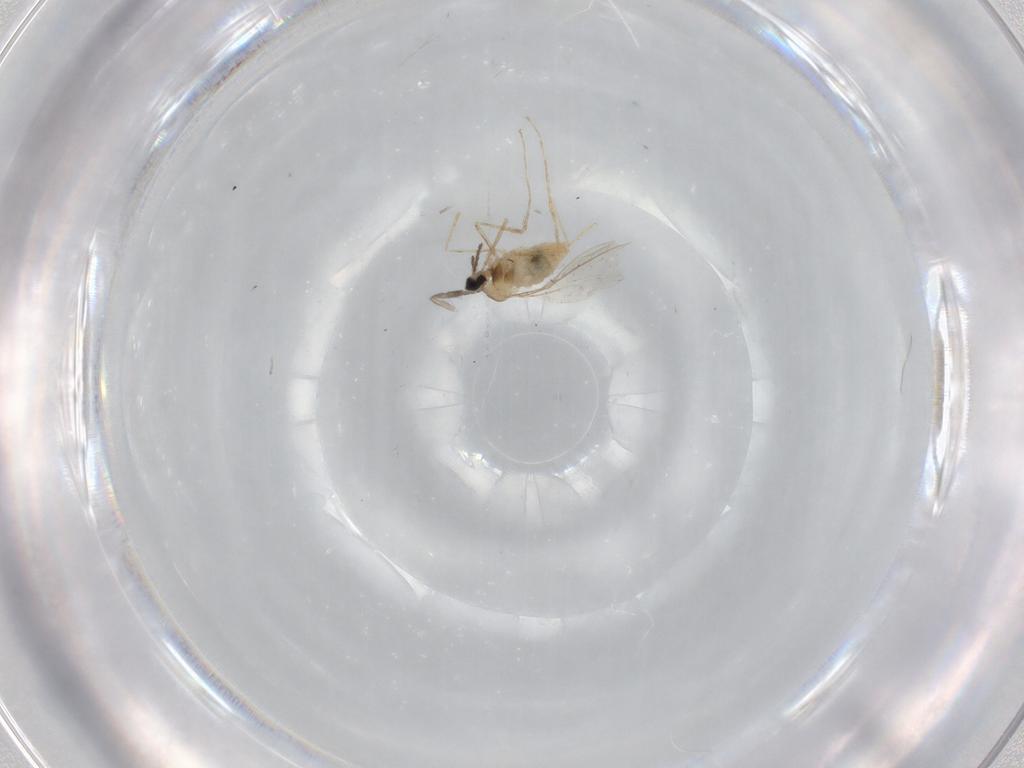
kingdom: Animalia
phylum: Arthropoda
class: Insecta
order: Diptera
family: Cecidomyiidae
